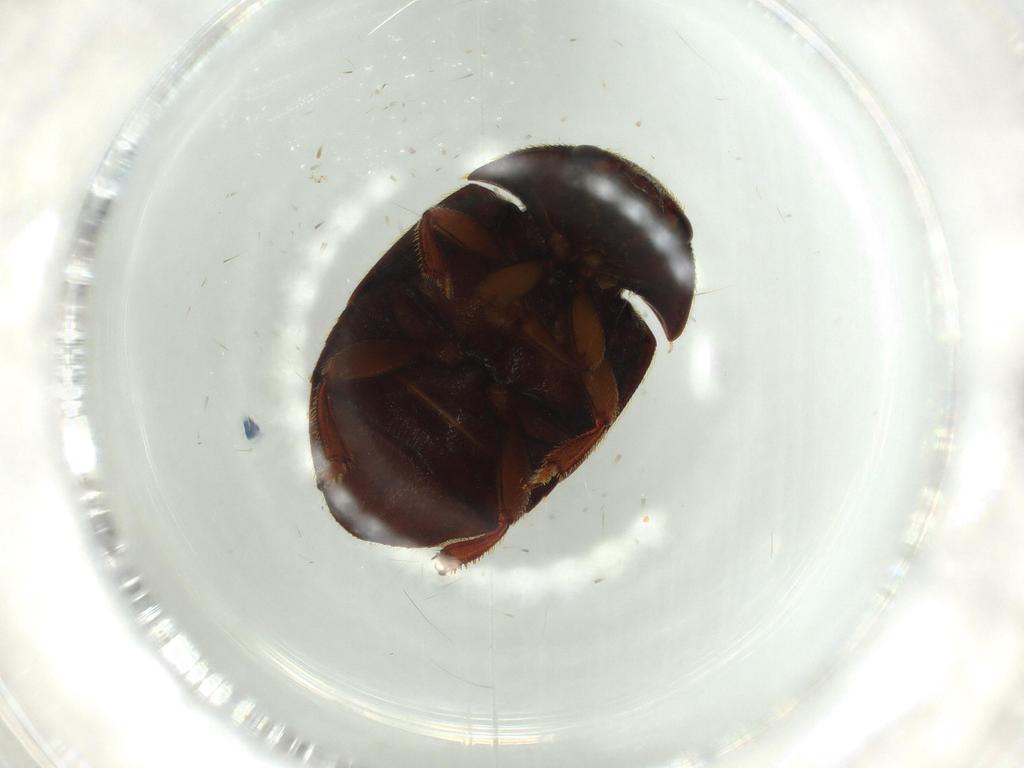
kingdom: Animalia
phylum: Arthropoda
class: Insecta
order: Coleoptera
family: Nitidulidae
